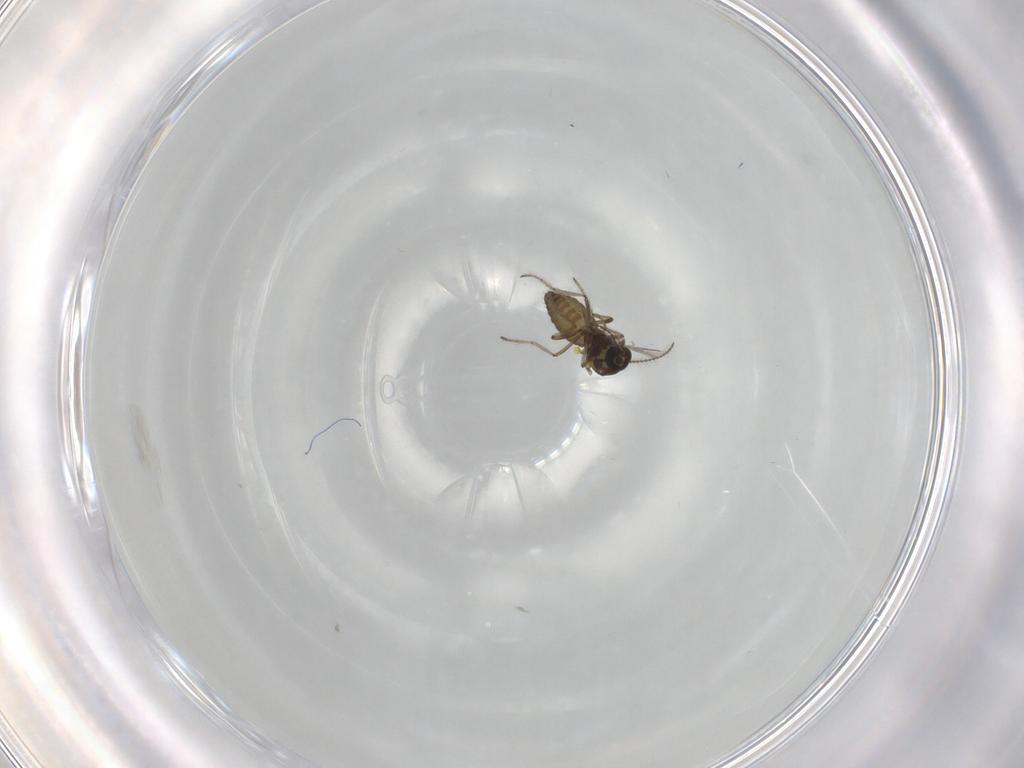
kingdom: Animalia
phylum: Arthropoda
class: Insecta
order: Diptera
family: Ceratopogonidae
